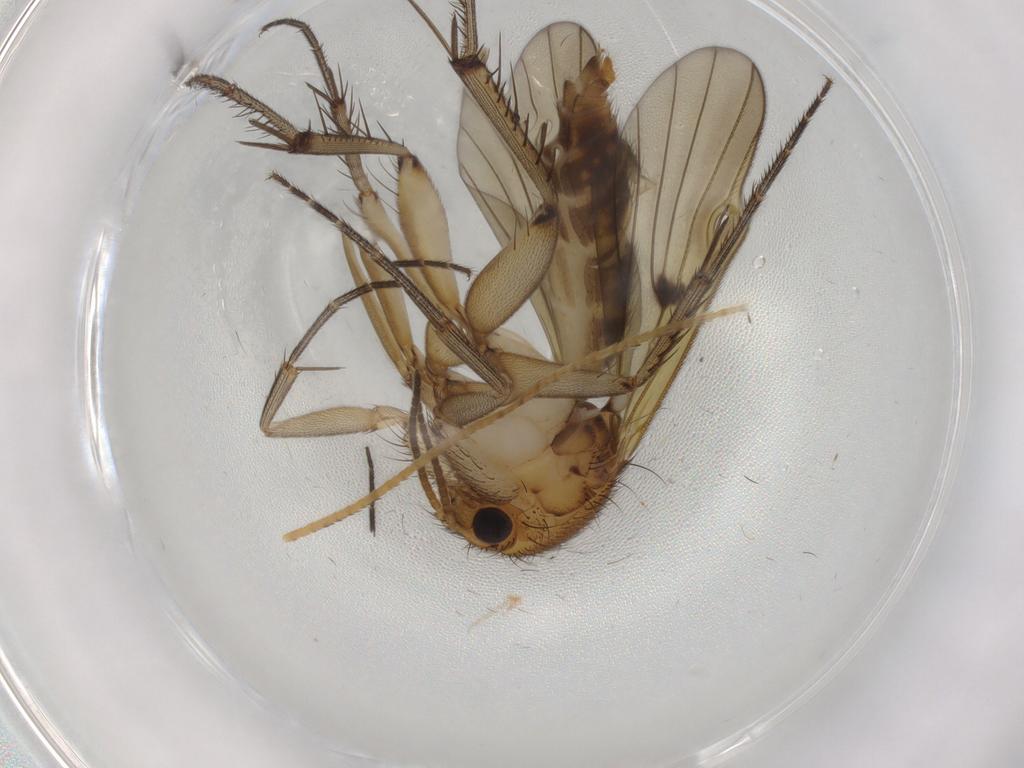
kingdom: Animalia
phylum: Arthropoda
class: Insecta
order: Diptera
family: Mycetophilidae
